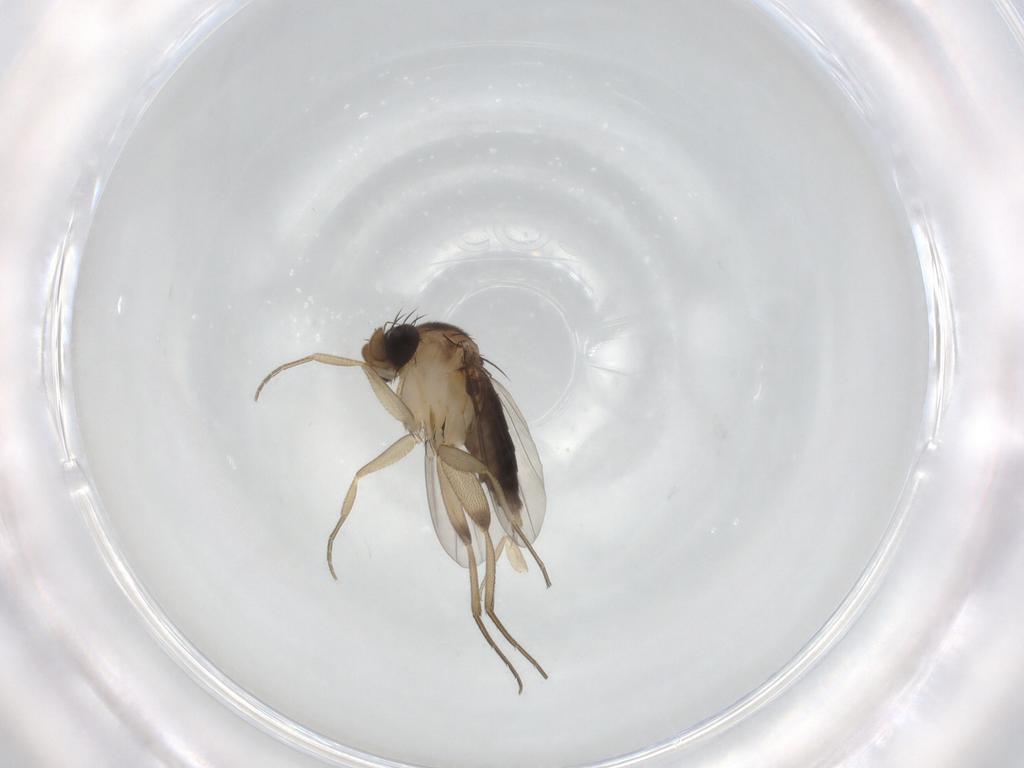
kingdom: Animalia
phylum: Arthropoda
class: Insecta
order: Diptera
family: Phoridae
